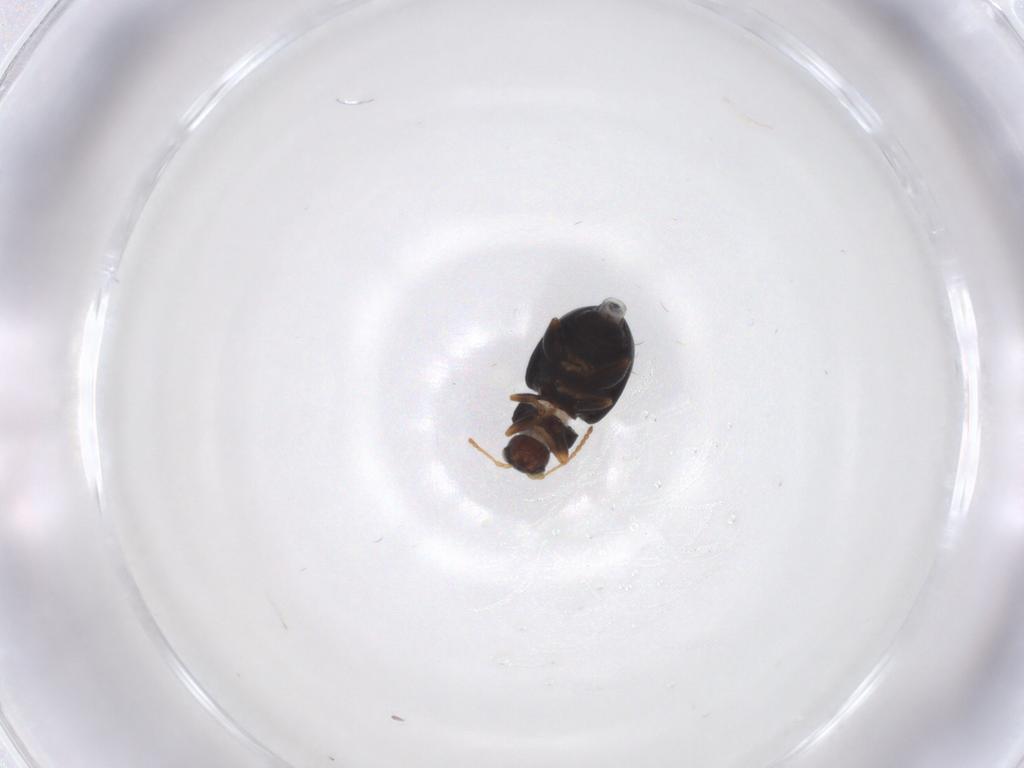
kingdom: Animalia
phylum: Arthropoda
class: Insecta
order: Coleoptera
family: Chrysomelidae
